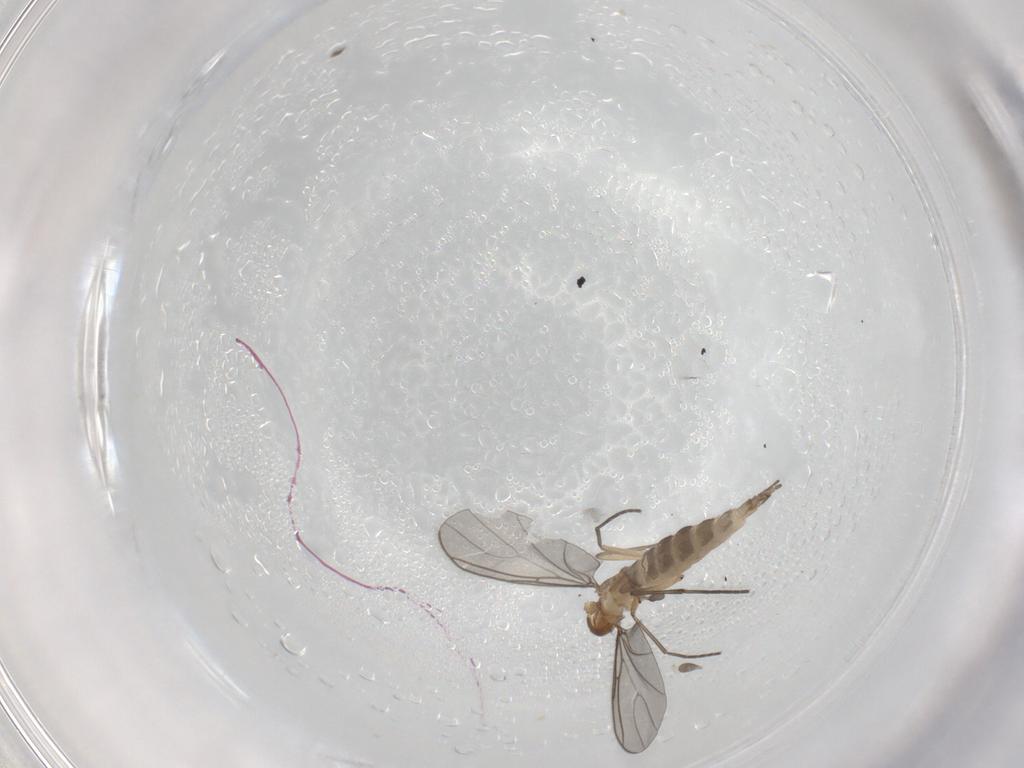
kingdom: Animalia
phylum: Arthropoda
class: Insecta
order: Diptera
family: Sciaridae
